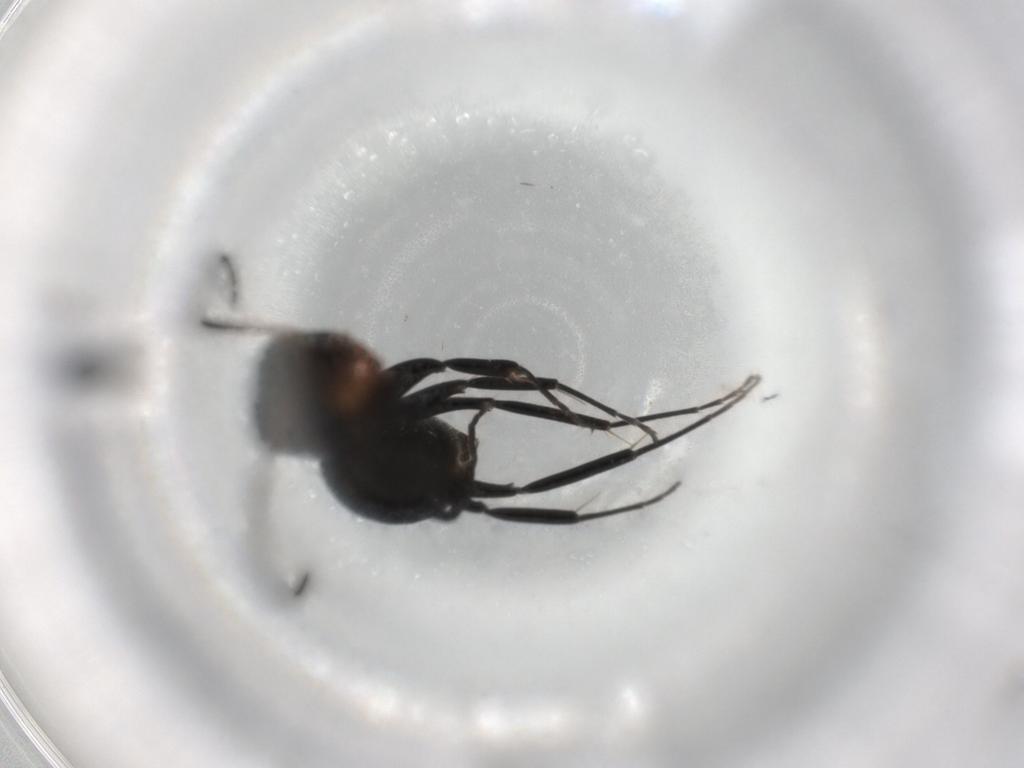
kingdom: Animalia
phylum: Arthropoda
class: Insecta
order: Hymenoptera
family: Formicidae
